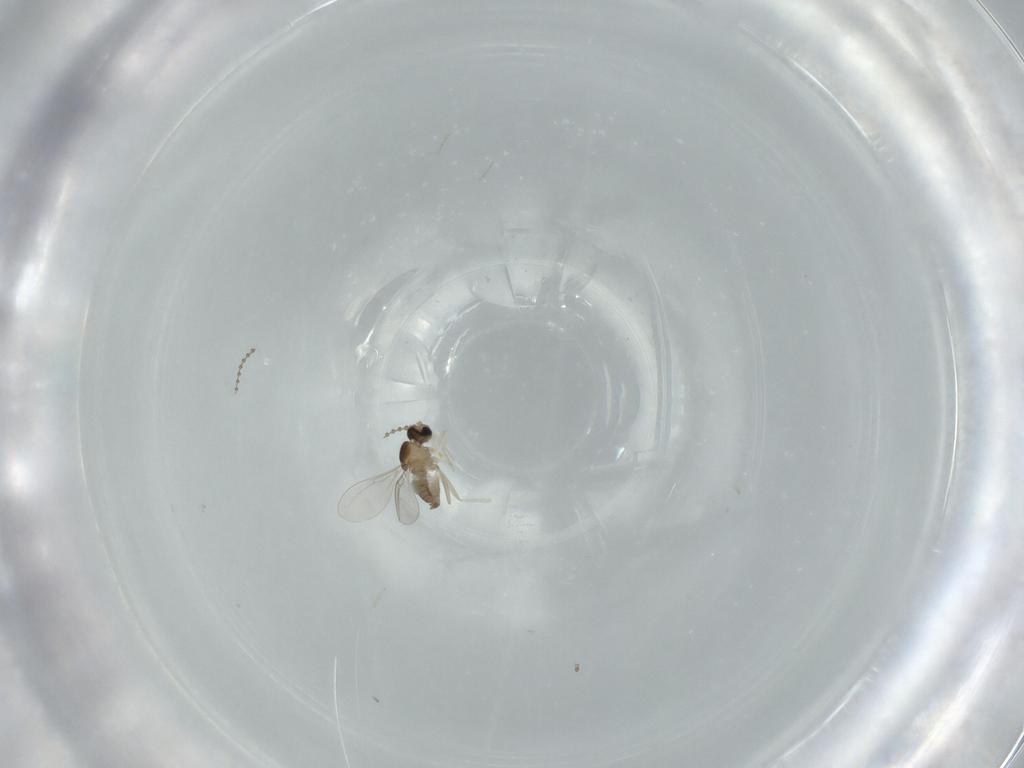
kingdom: Animalia
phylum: Arthropoda
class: Insecta
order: Diptera
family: Cecidomyiidae
